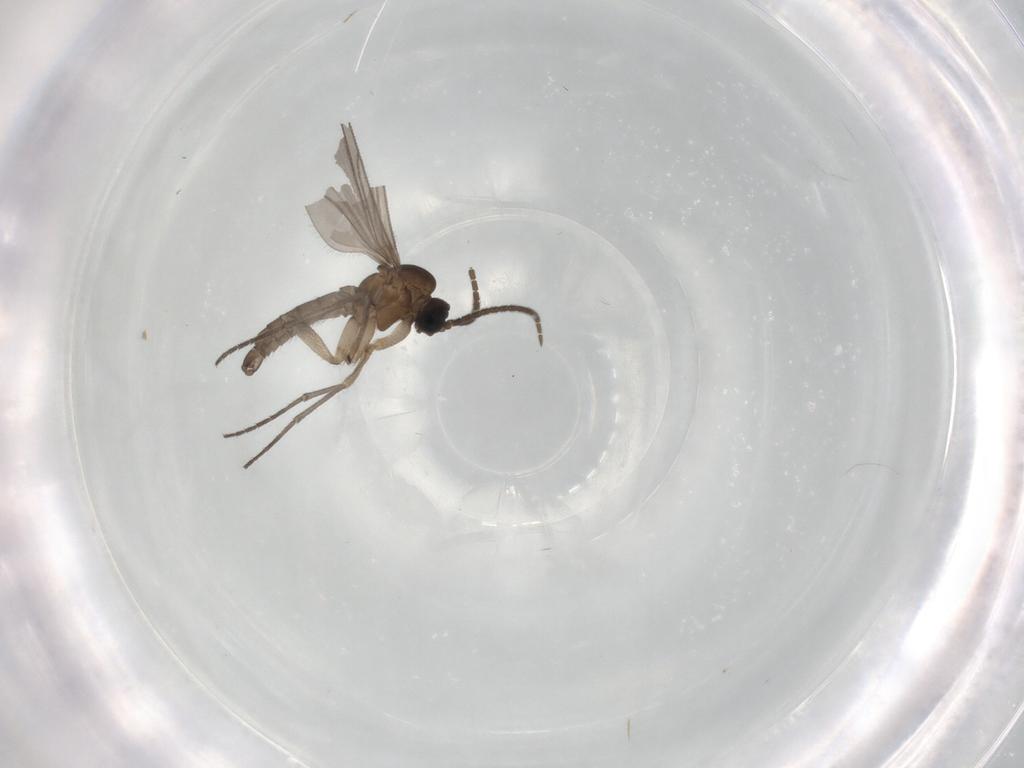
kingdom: Animalia
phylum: Arthropoda
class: Insecta
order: Diptera
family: Sciaridae
